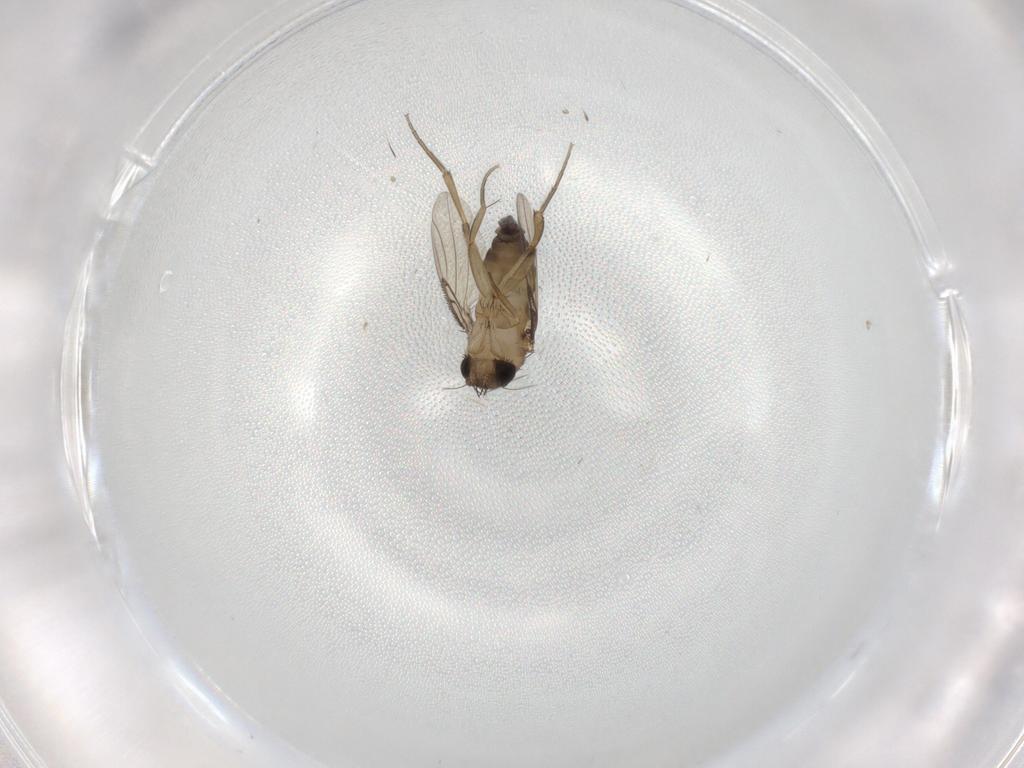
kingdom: Animalia
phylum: Arthropoda
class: Insecta
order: Diptera
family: Phoridae
